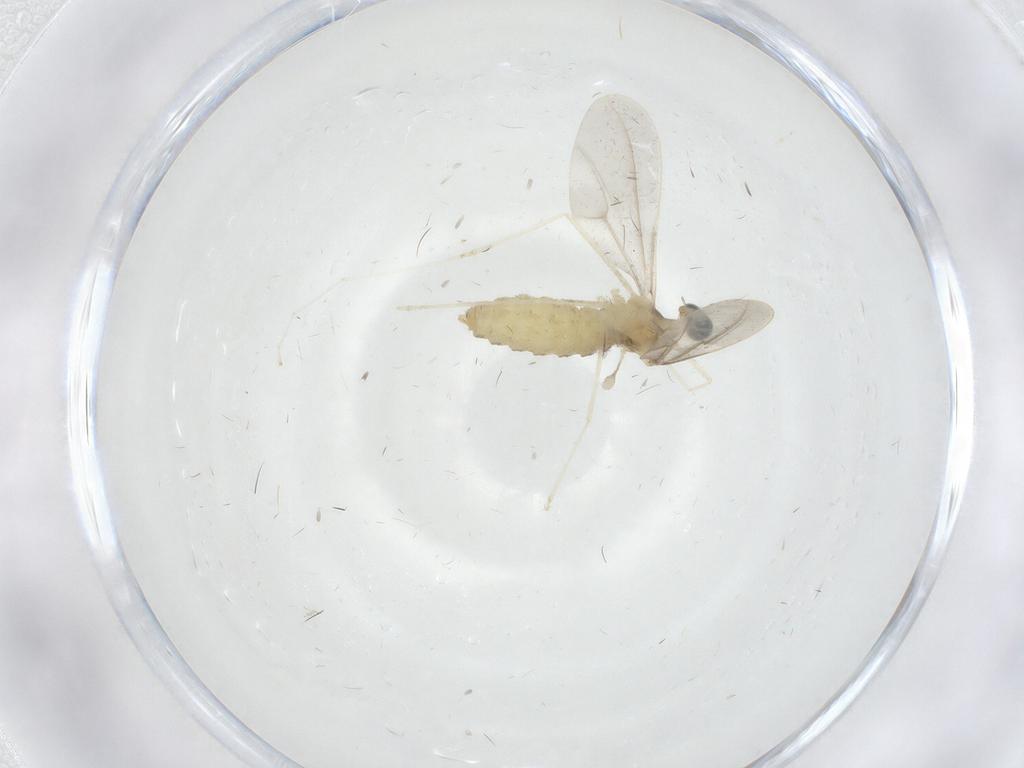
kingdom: Animalia
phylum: Arthropoda
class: Insecta
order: Diptera
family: Cecidomyiidae
